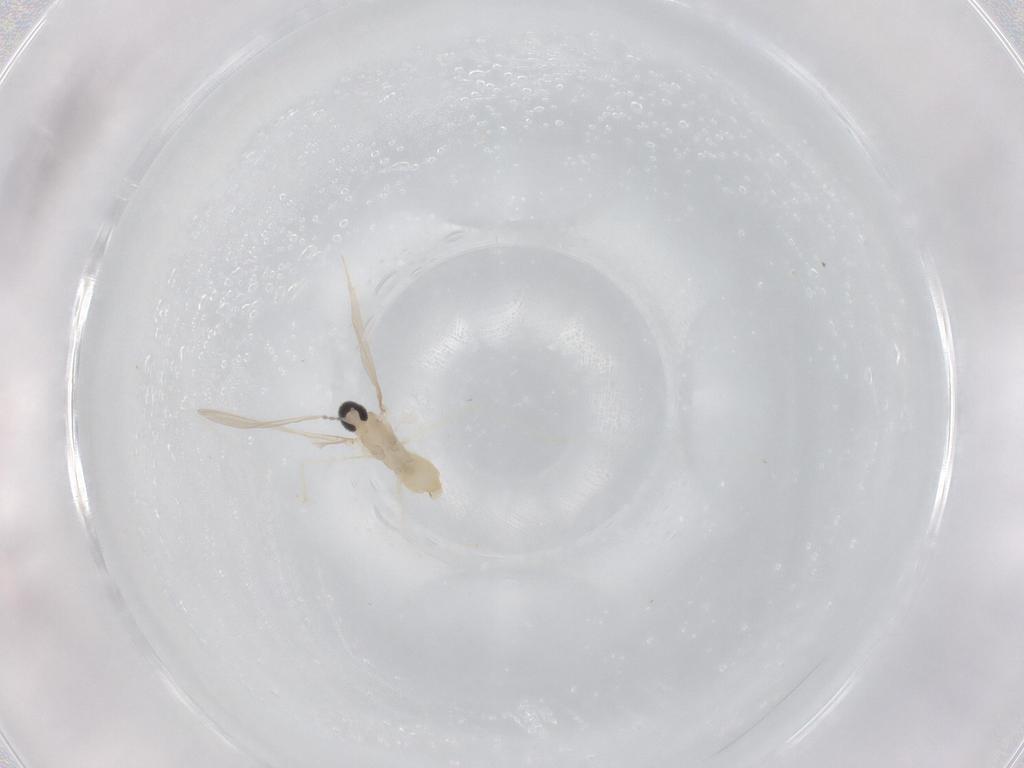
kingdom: Animalia
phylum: Arthropoda
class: Insecta
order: Diptera
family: Cecidomyiidae
